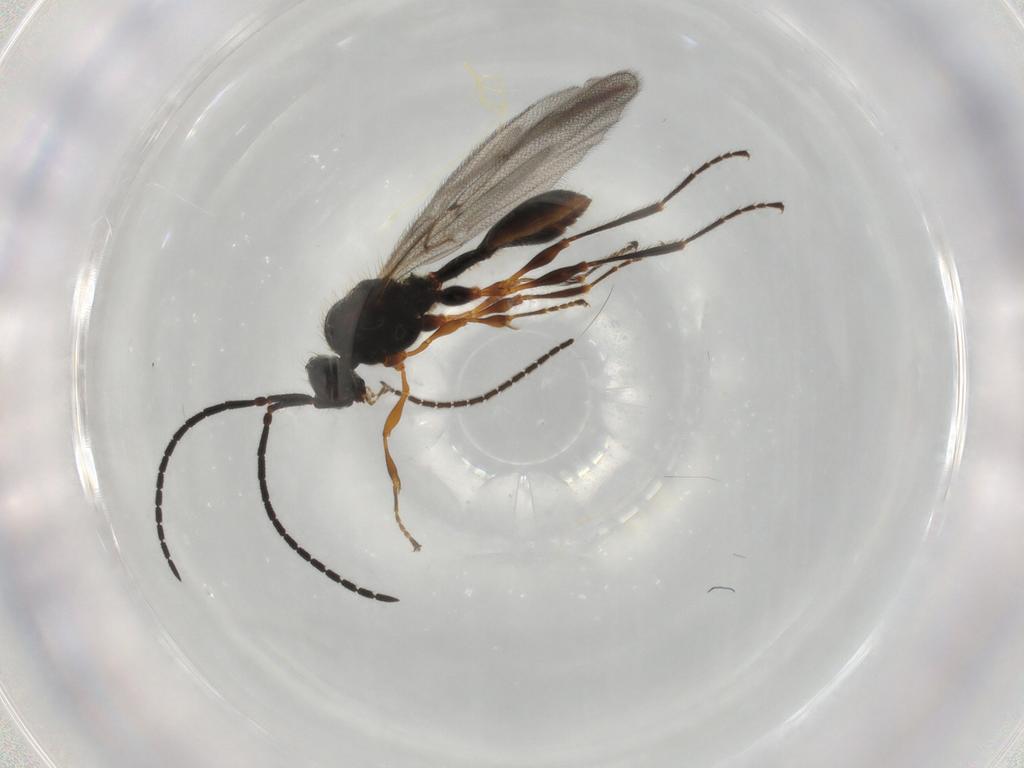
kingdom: Animalia
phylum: Arthropoda
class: Insecta
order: Hymenoptera
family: Diapriidae
